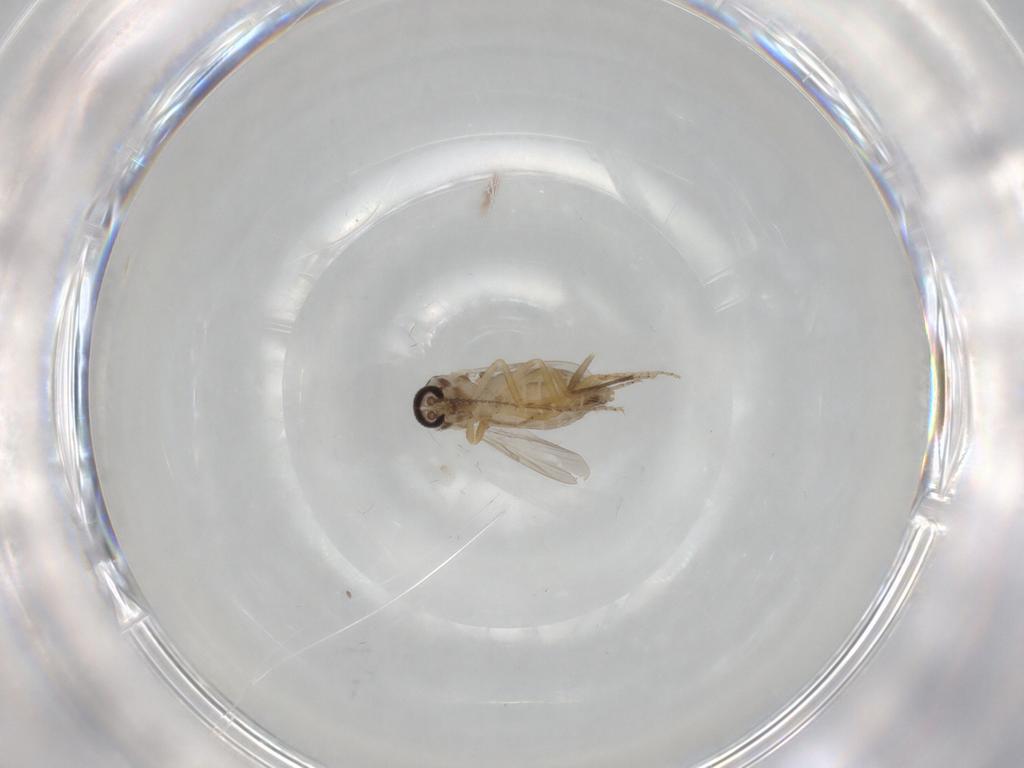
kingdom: Animalia
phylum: Arthropoda
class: Insecta
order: Diptera
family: Ceratopogonidae
